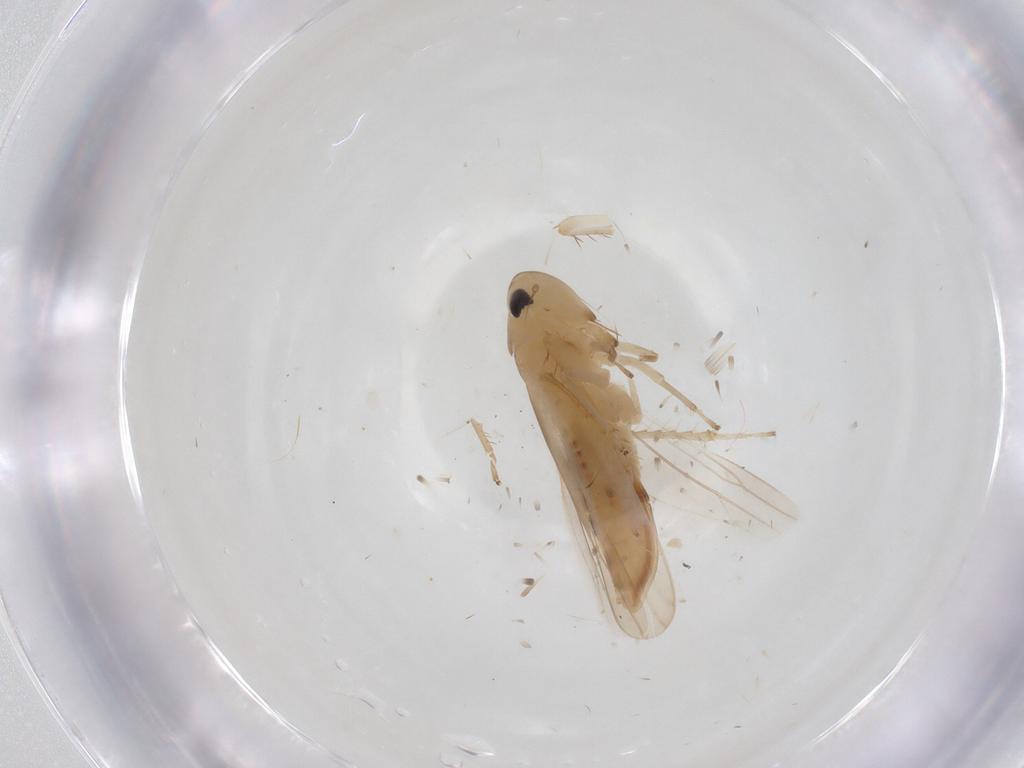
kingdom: Animalia
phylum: Arthropoda
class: Insecta
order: Hemiptera
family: Cicadellidae
